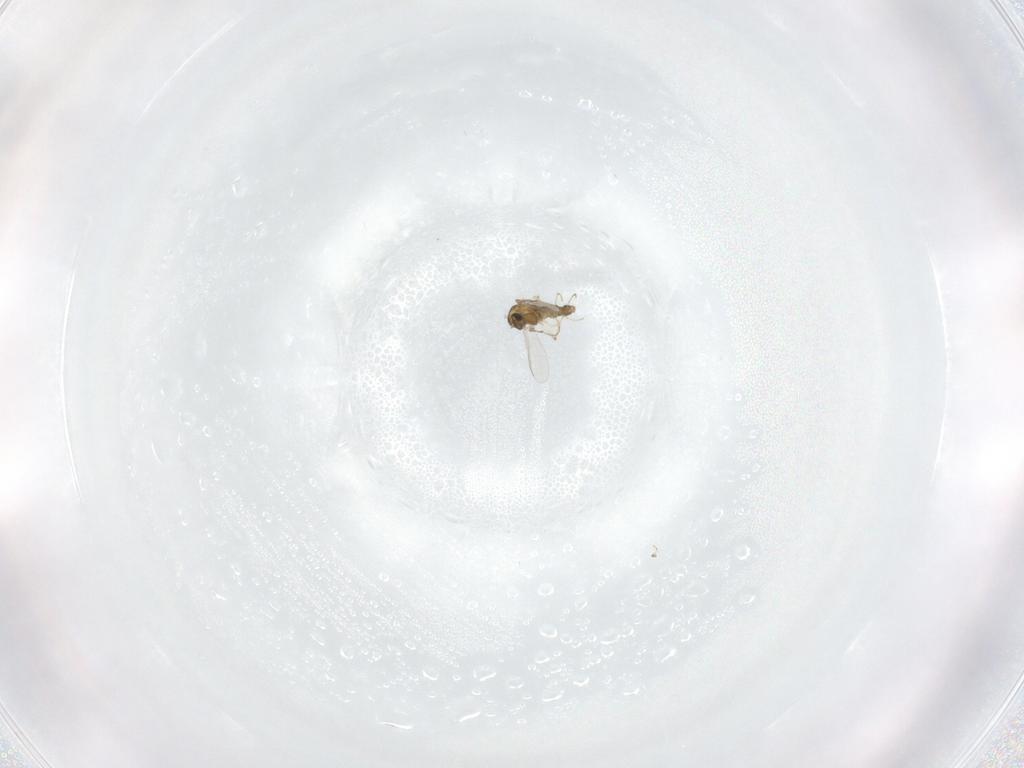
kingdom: Animalia
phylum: Arthropoda
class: Insecta
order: Diptera
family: Chironomidae
